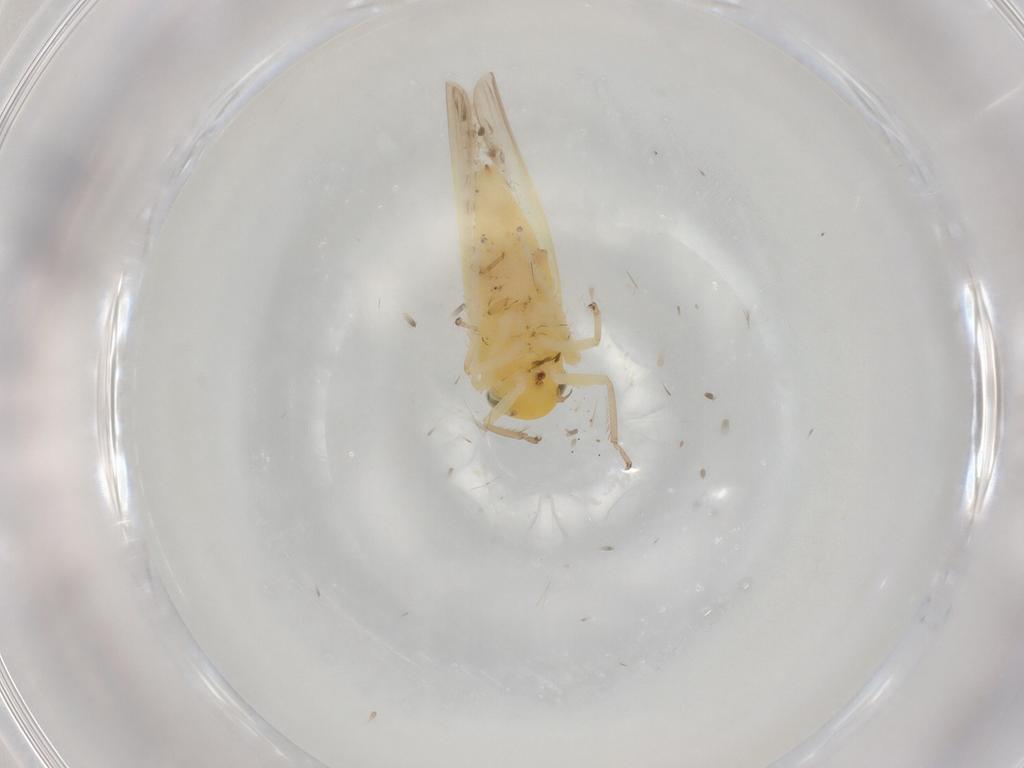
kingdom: Animalia
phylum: Arthropoda
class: Insecta
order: Hemiptera
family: Cicadellidae
